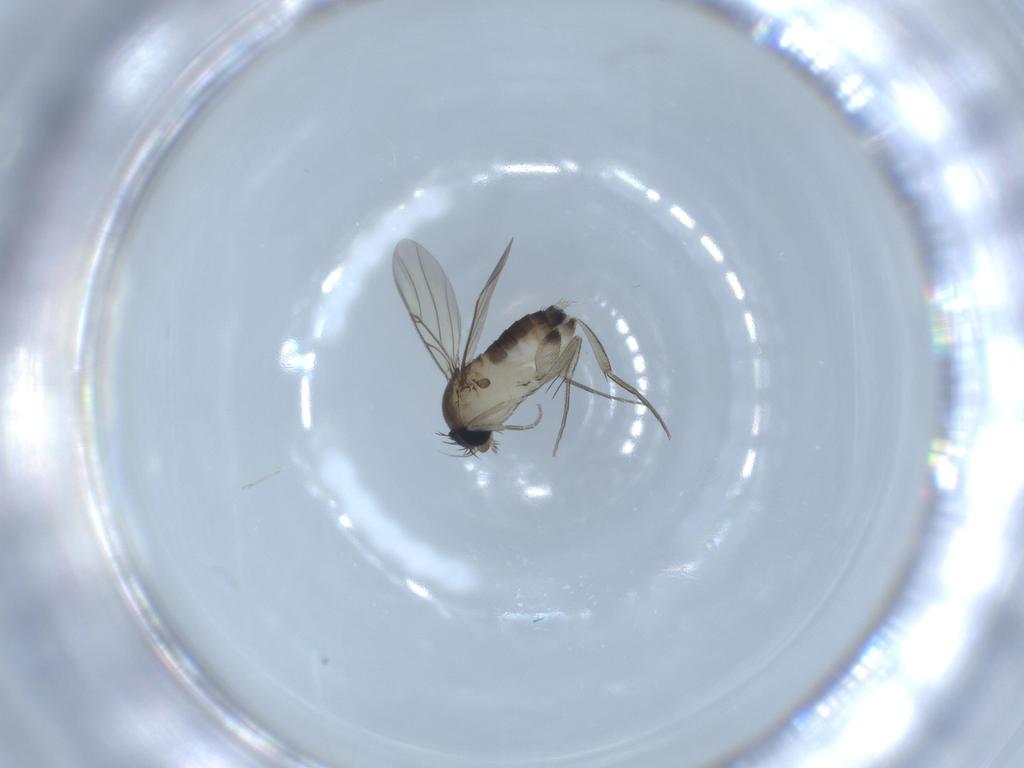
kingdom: Animalia
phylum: Arthropoda
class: Insecta
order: Diptera
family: Phoridae
